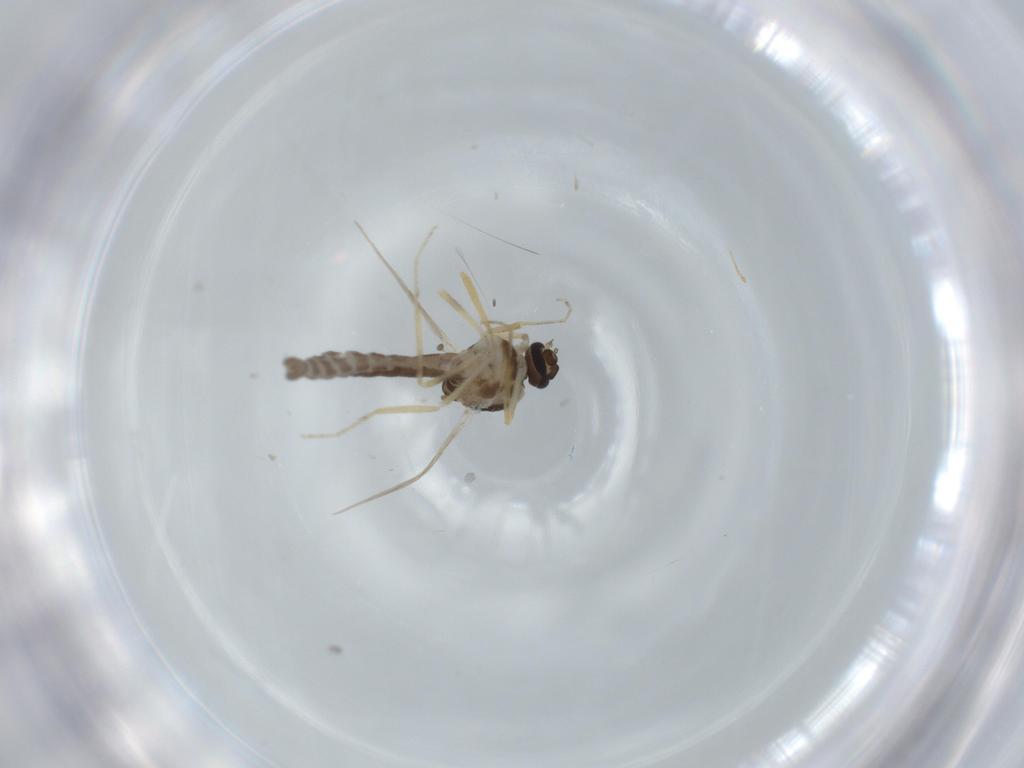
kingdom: Animalia
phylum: Arthropoda
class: Insecta
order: Diptera
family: Ceratopogonidae
